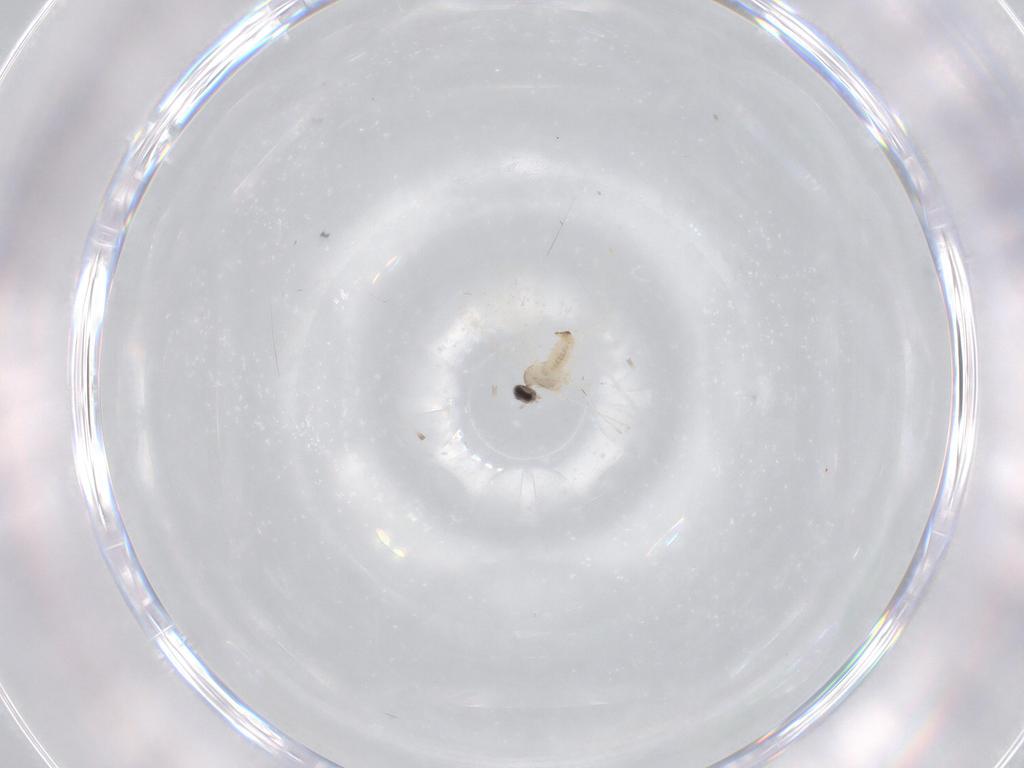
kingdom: Animalia
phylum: Arthropoda
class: Insecta
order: Diptera
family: Ceratopogonidae
